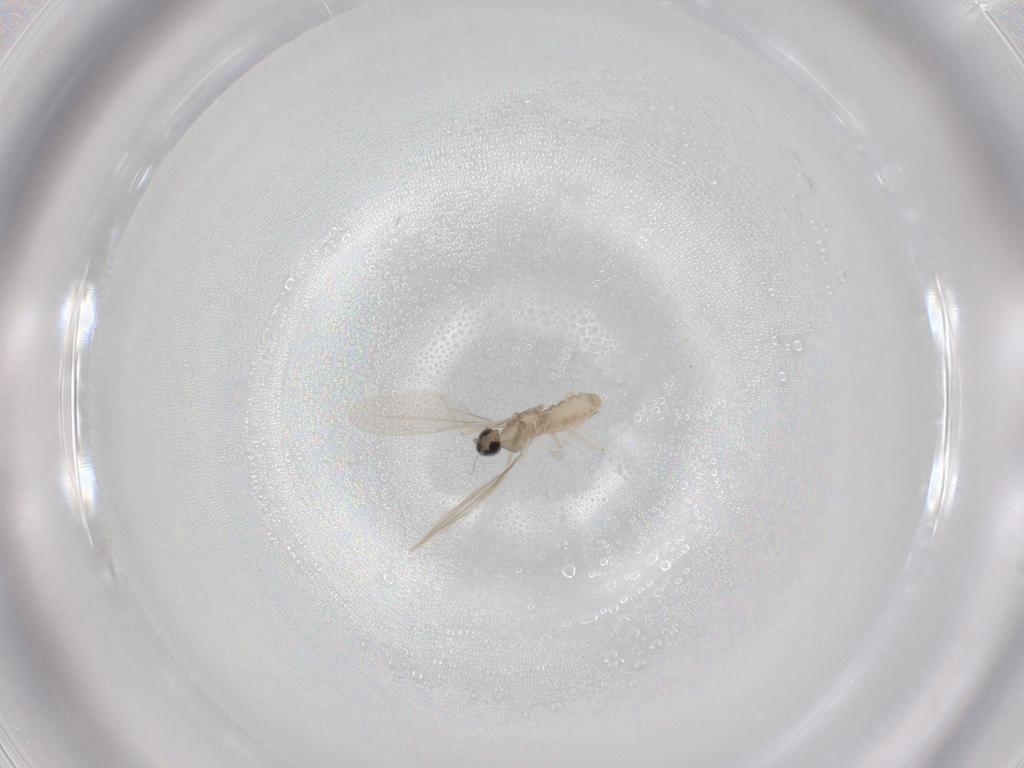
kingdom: Animalia
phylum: Arthropoda
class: Insecta
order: Diptera
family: Cecidomyiidae
